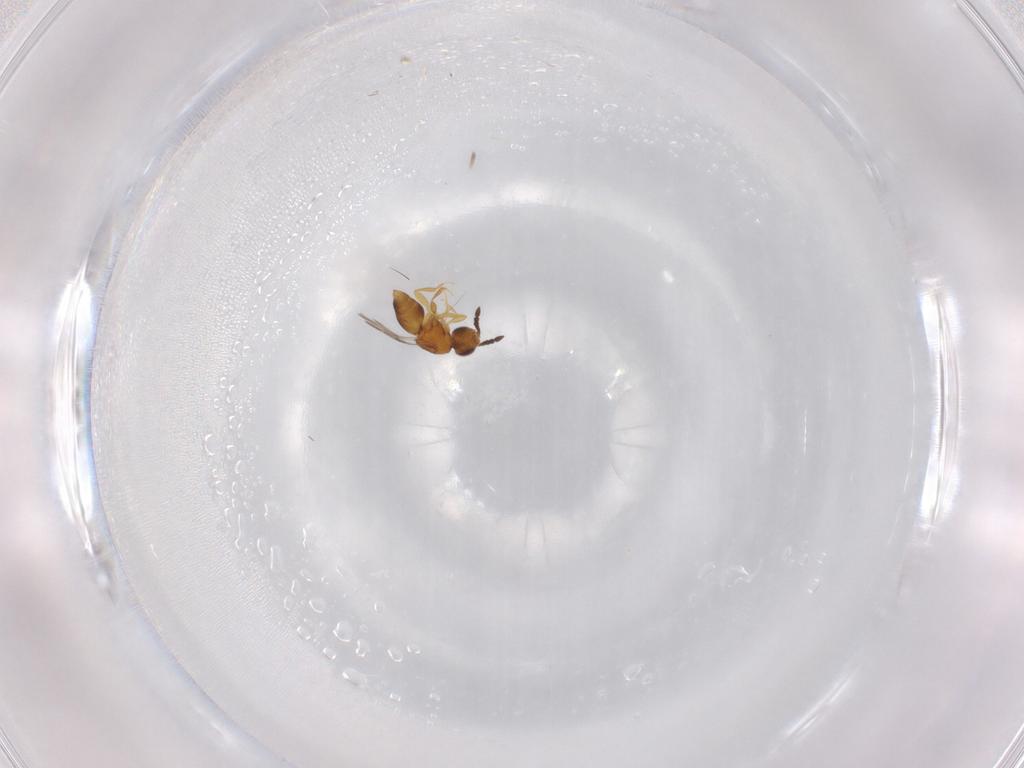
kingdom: Animalia
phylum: Arthropoda
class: Insecta
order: Hymenoptera
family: Ceraphronidae
